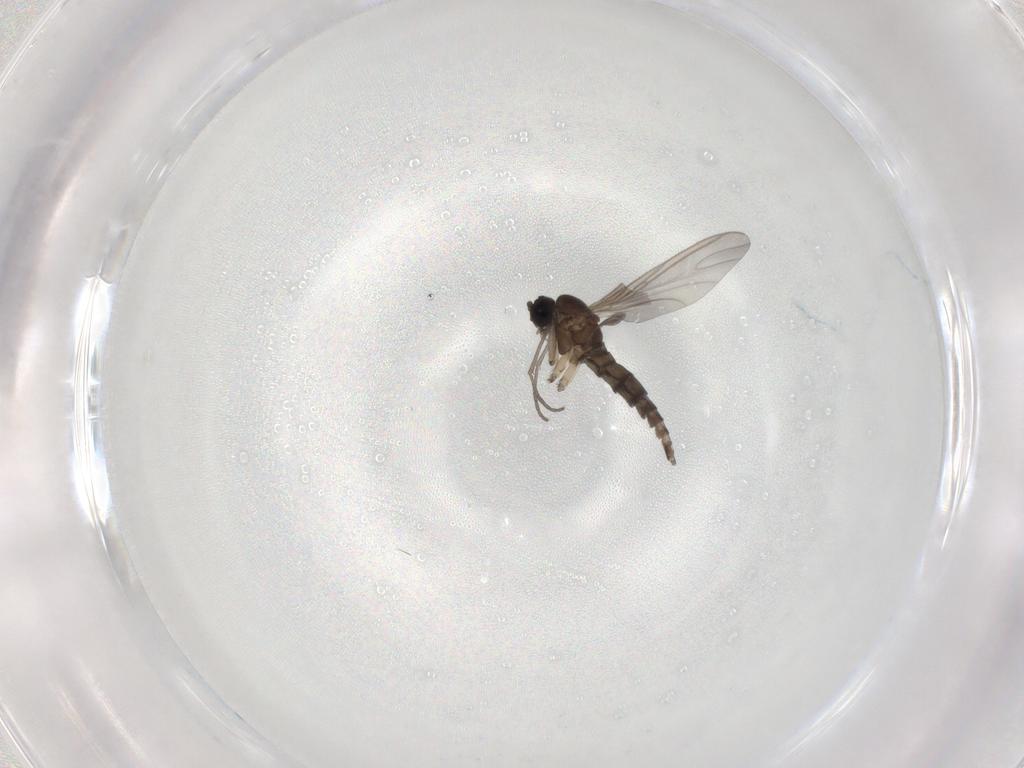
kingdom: Animalia
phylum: Arthropoda
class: Insecta
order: Diptera
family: Sciaridae
